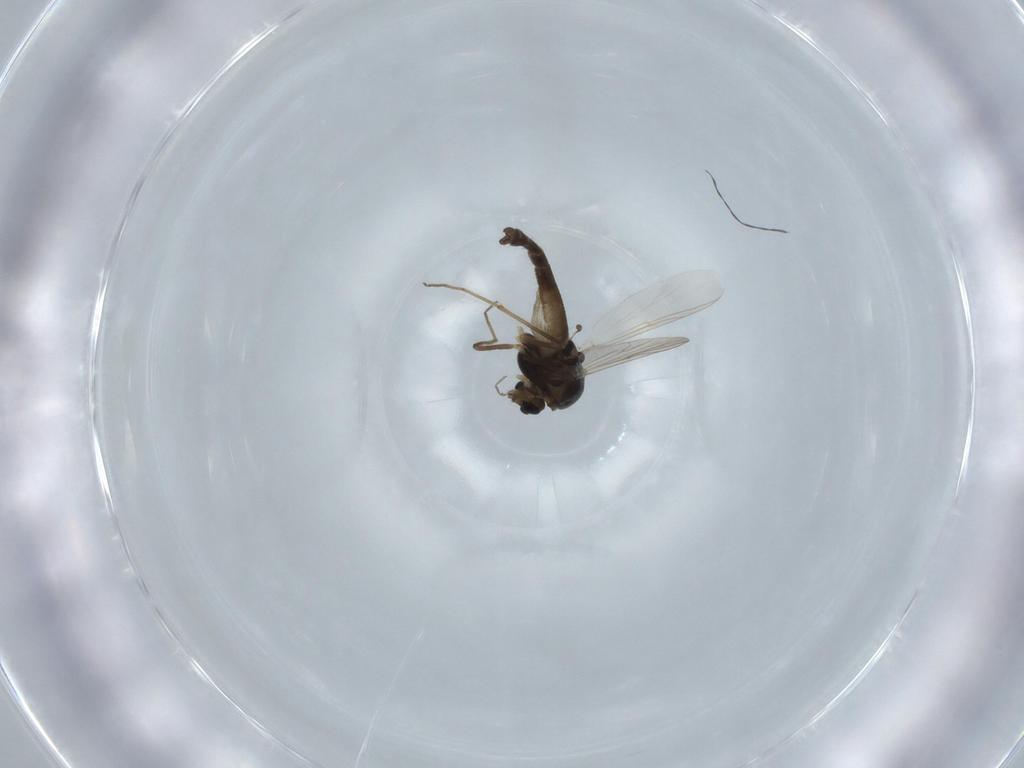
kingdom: Animalia
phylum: Arthropoda
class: Insecta
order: Diptera
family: Chironomidae
